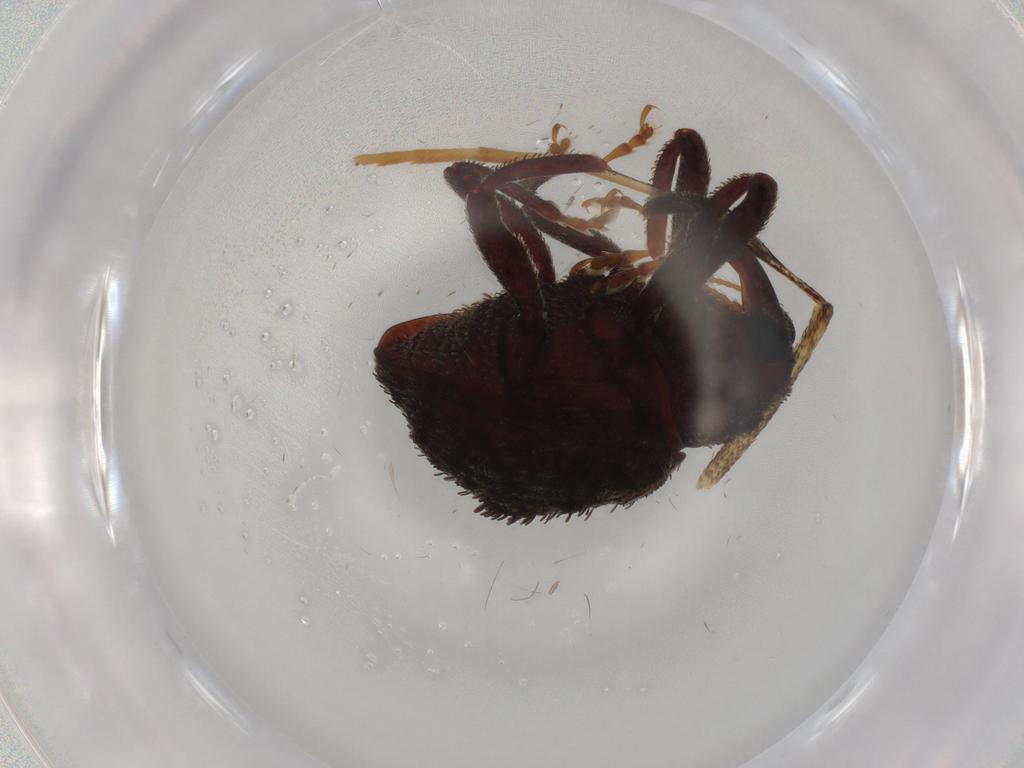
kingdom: Animalia
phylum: Arthropoda
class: Insecta
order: Coleoptera
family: Curculionidae
